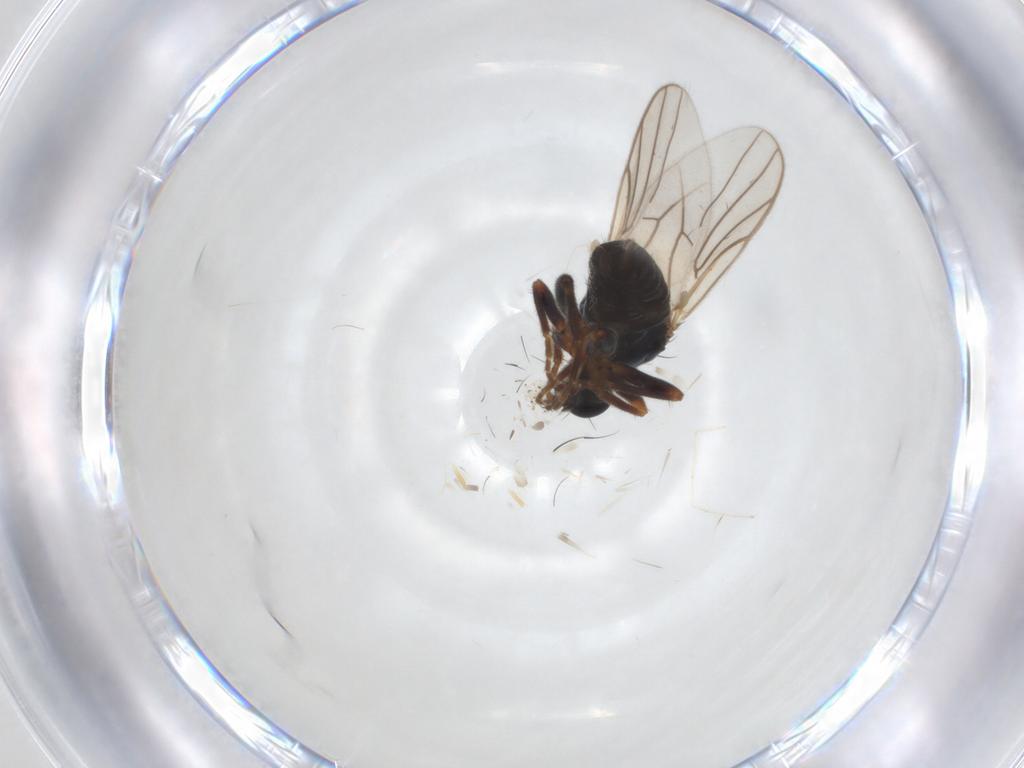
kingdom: Animalia
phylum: Arthropoda
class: Insecta
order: Diptera
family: Hybotidae
